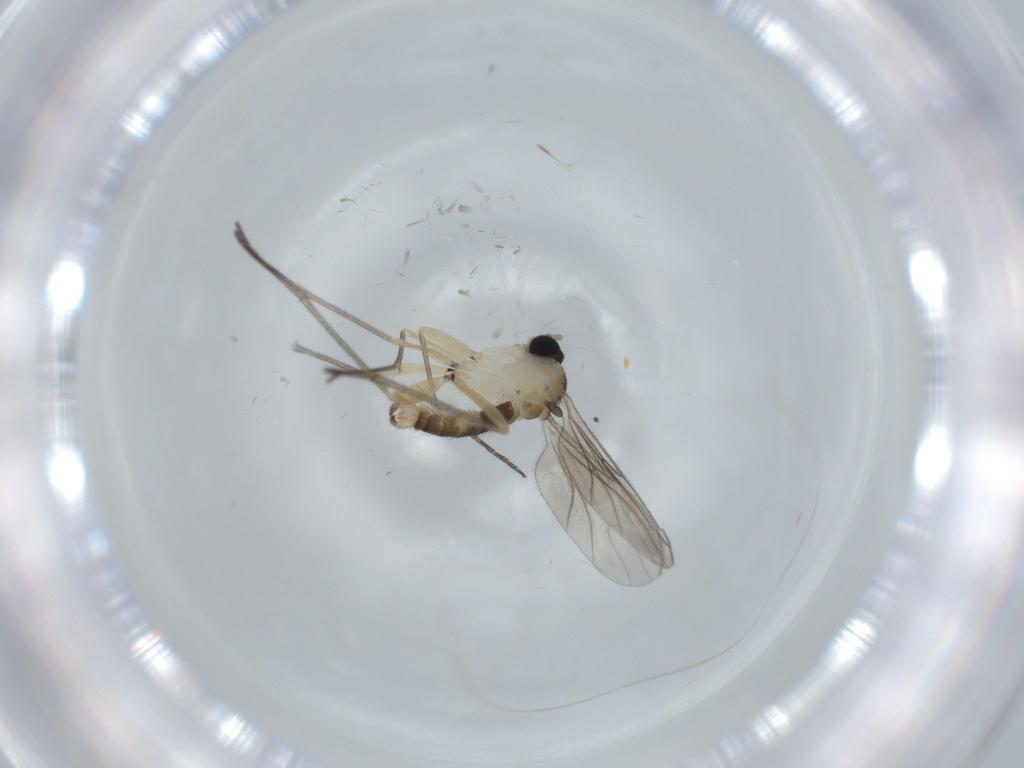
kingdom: Animalia
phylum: Arthropoda
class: Insecta
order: Diptera
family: Sciaridae
